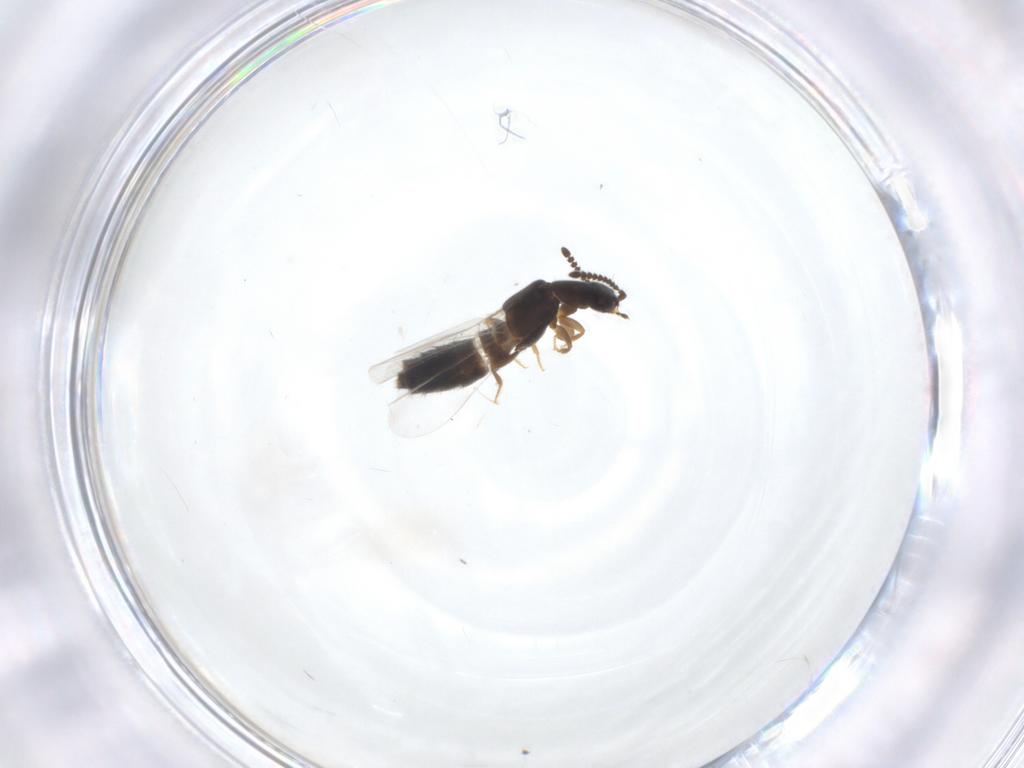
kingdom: Animalia
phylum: Arthropoda
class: Insecta
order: Coleoptera
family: Staphylinidae
